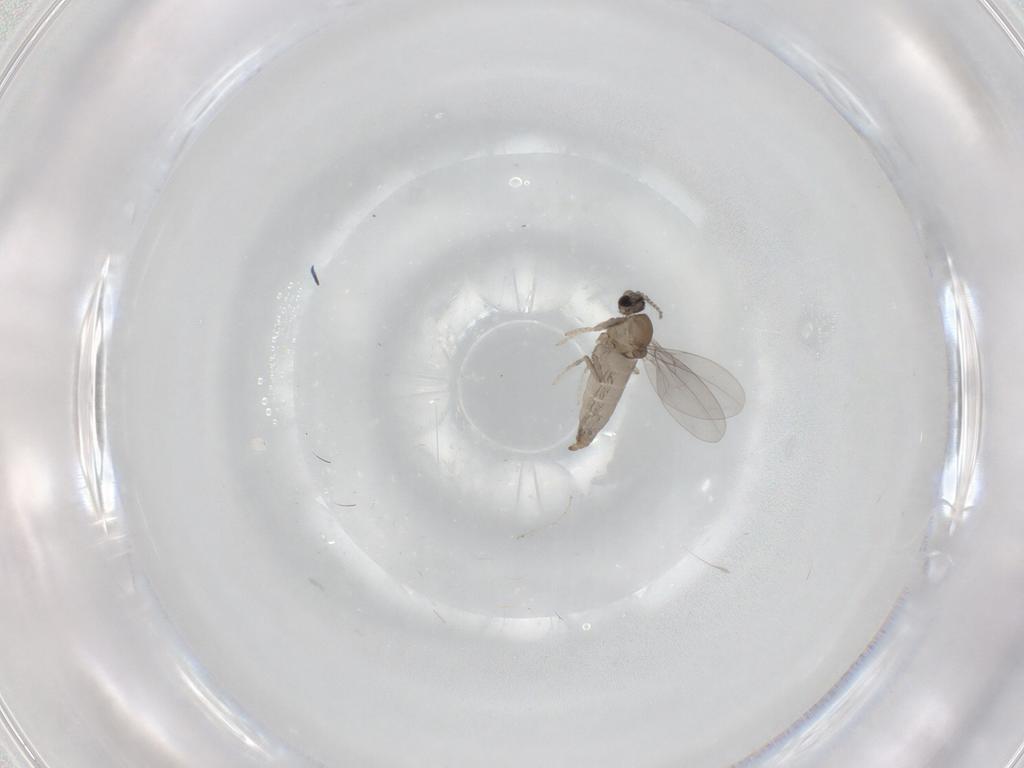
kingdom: Animalia
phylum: Arthropoda
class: Insecta
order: Diptera
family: Cecidomyiidae
